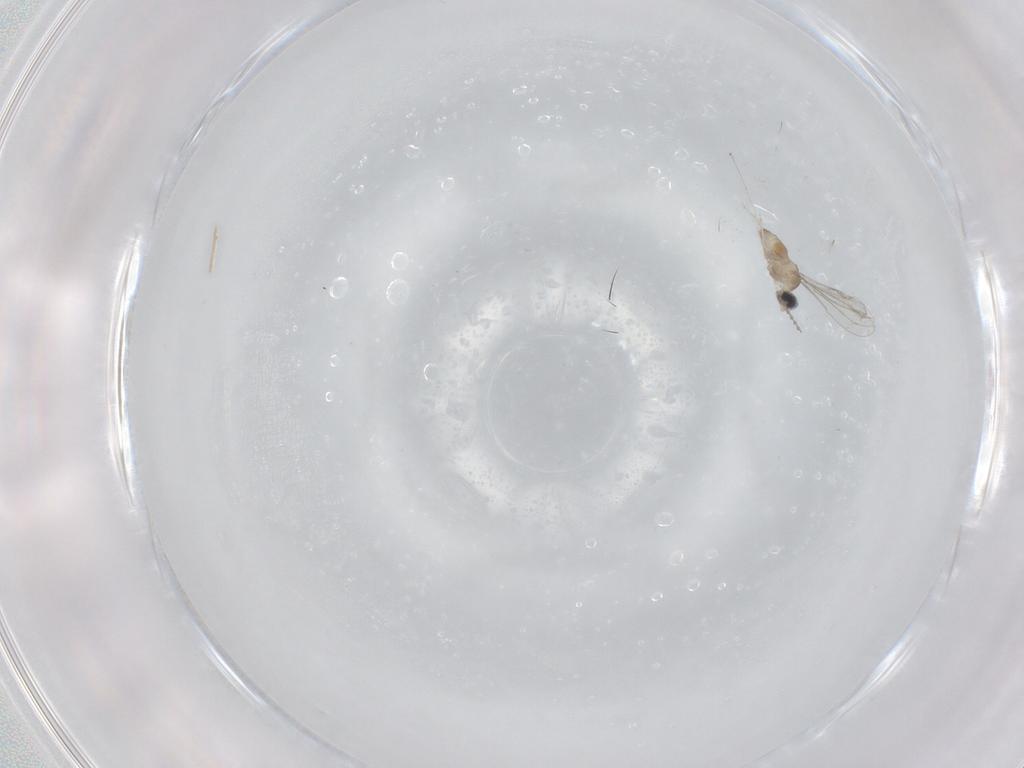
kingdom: Animalia
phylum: Arthropoda
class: Insecta
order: Diptera
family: Cecidomyiidae
